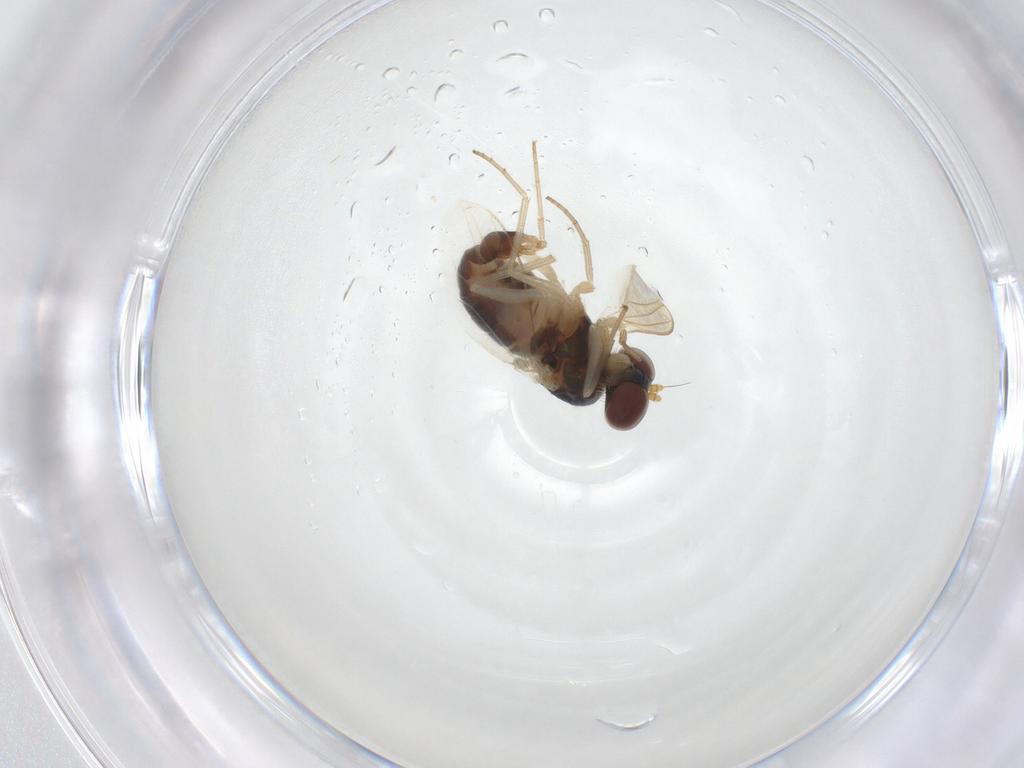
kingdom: Animalia
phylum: Arthropoda
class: Insecta
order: Diptera
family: Dolichopodidae
